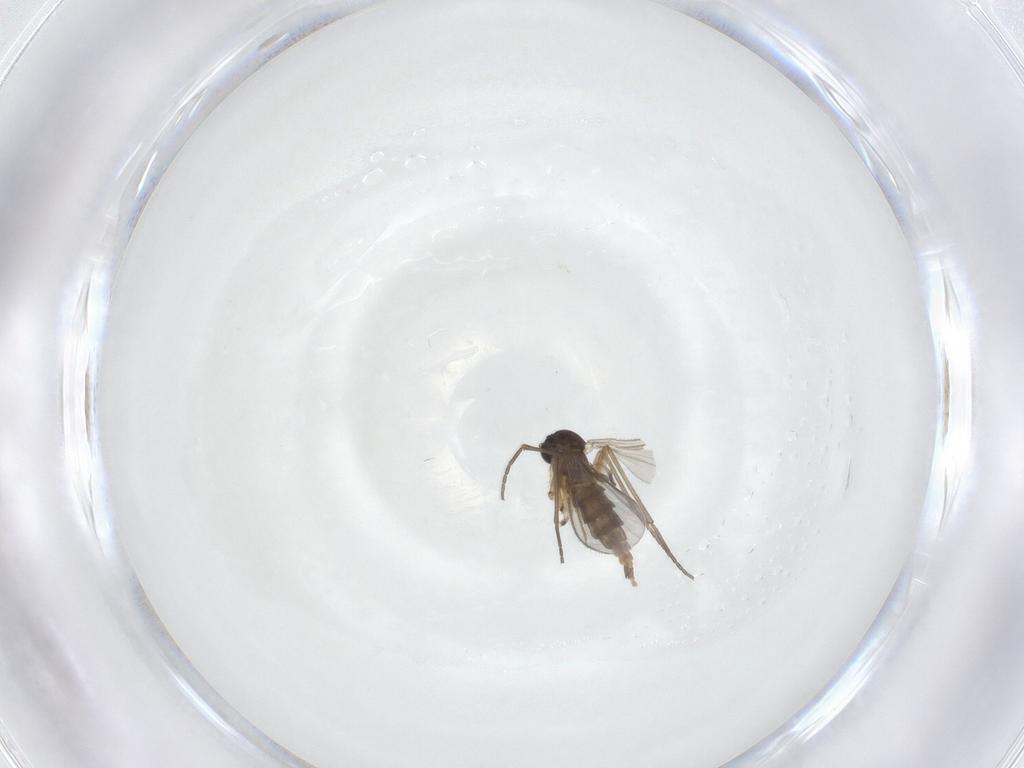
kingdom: Animalia
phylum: Arthropoda
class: Insecta
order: Diptera
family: Sciaridae
